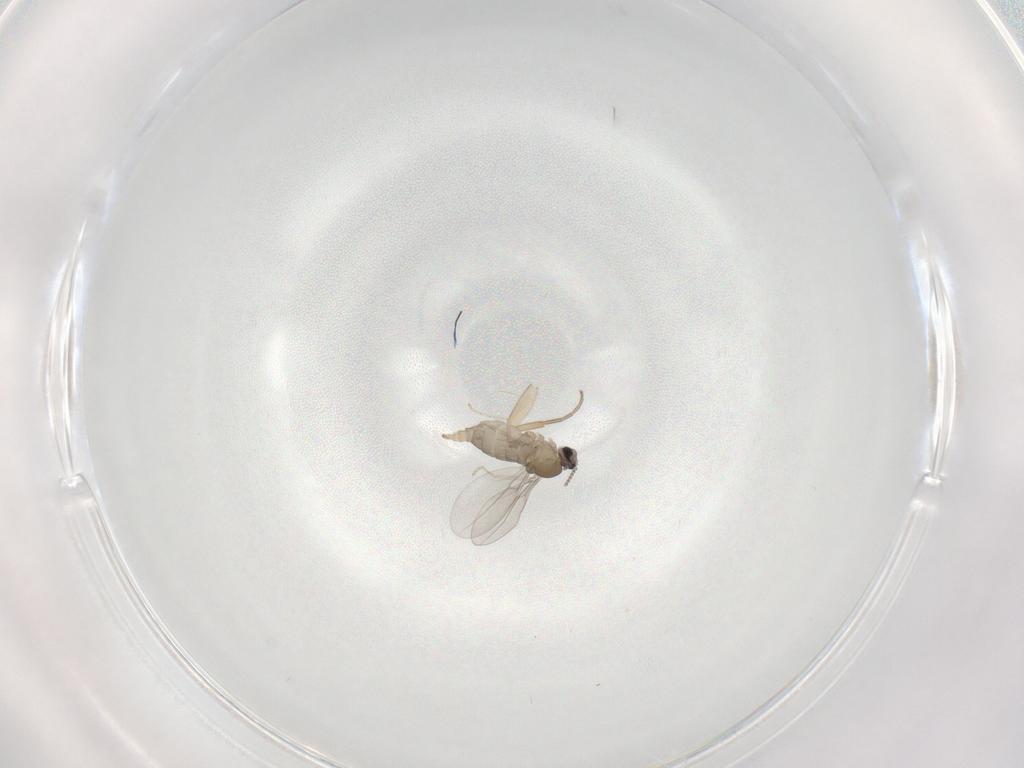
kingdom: Animalia
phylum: Arthropoda
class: Insecta
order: Diptera
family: Cecidomyiidae
